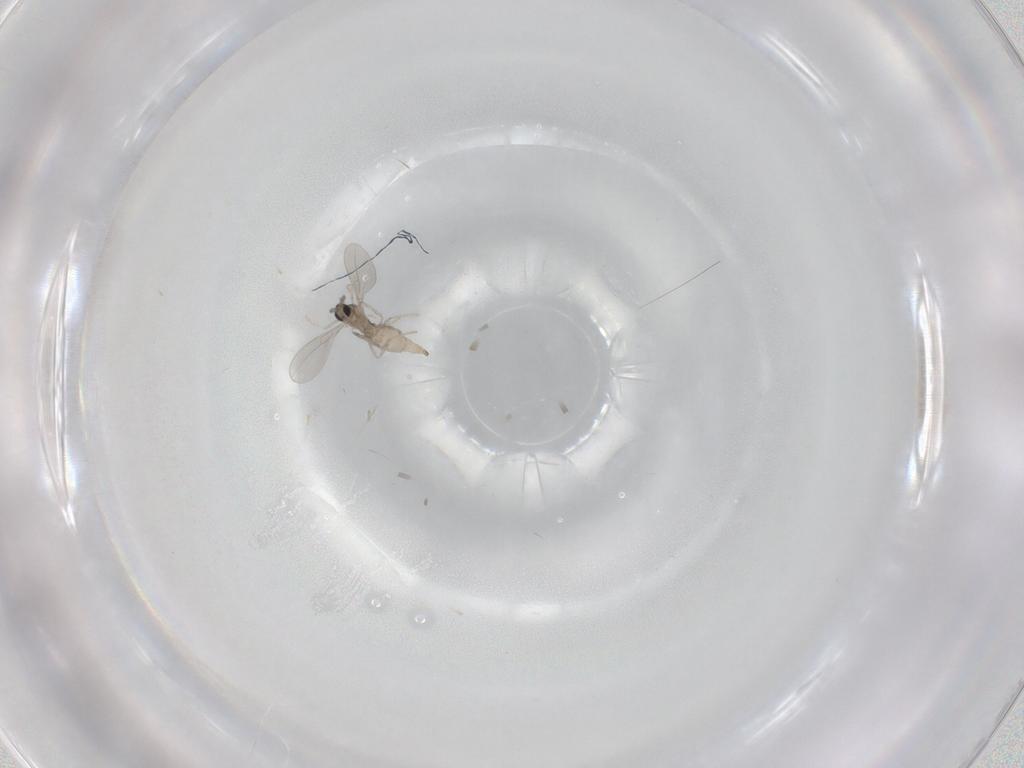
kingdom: Animalia
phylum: Arthropoda
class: Insecta
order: Diptera
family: Cecidomyiidae
